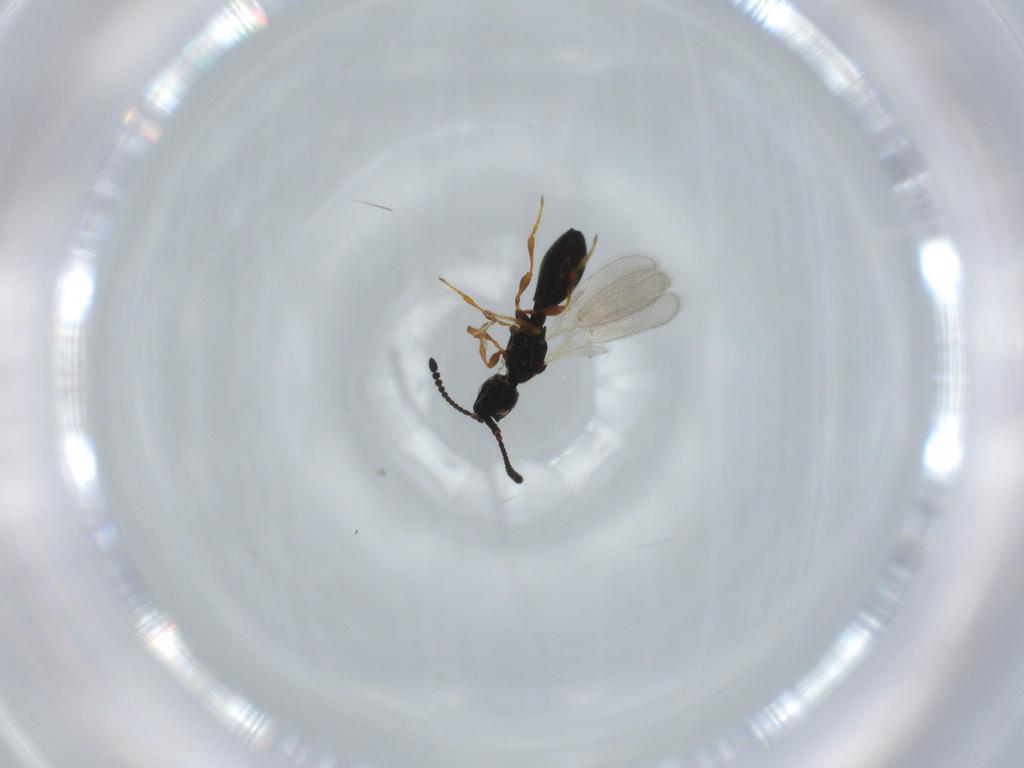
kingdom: Animalia
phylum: Arthropoda
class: Insecta
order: Hymenoptera
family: Diapriidae
